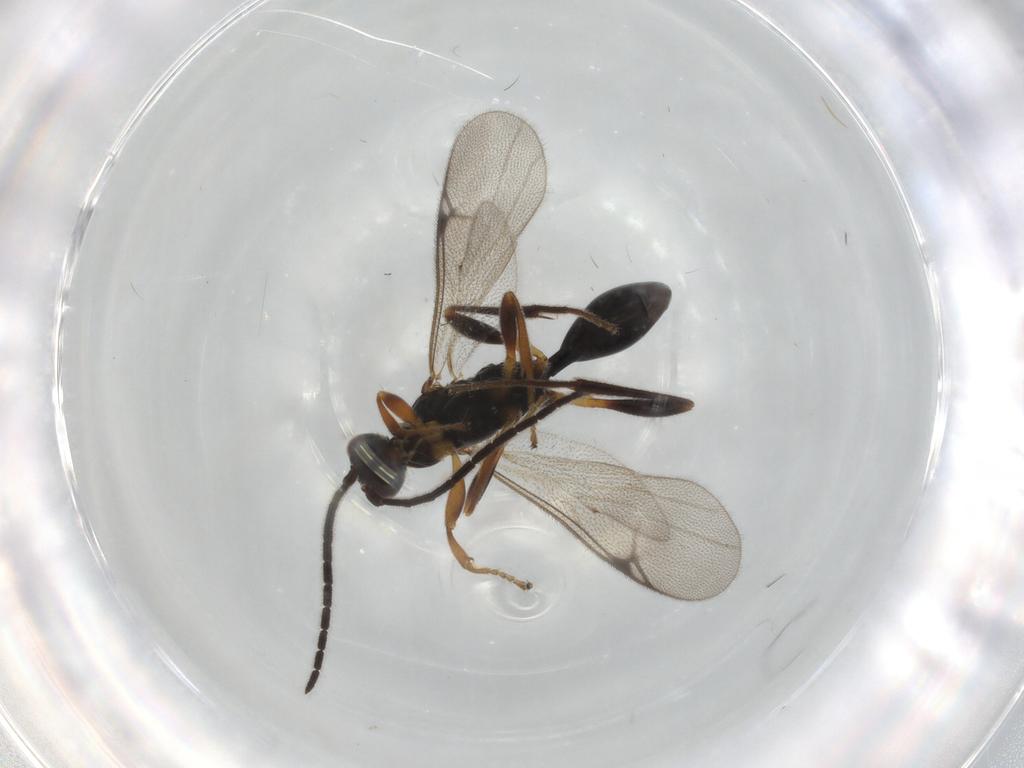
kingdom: Animalia
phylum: Arthropoda
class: Insecta
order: Hymenoptera
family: Proctotrupidae
